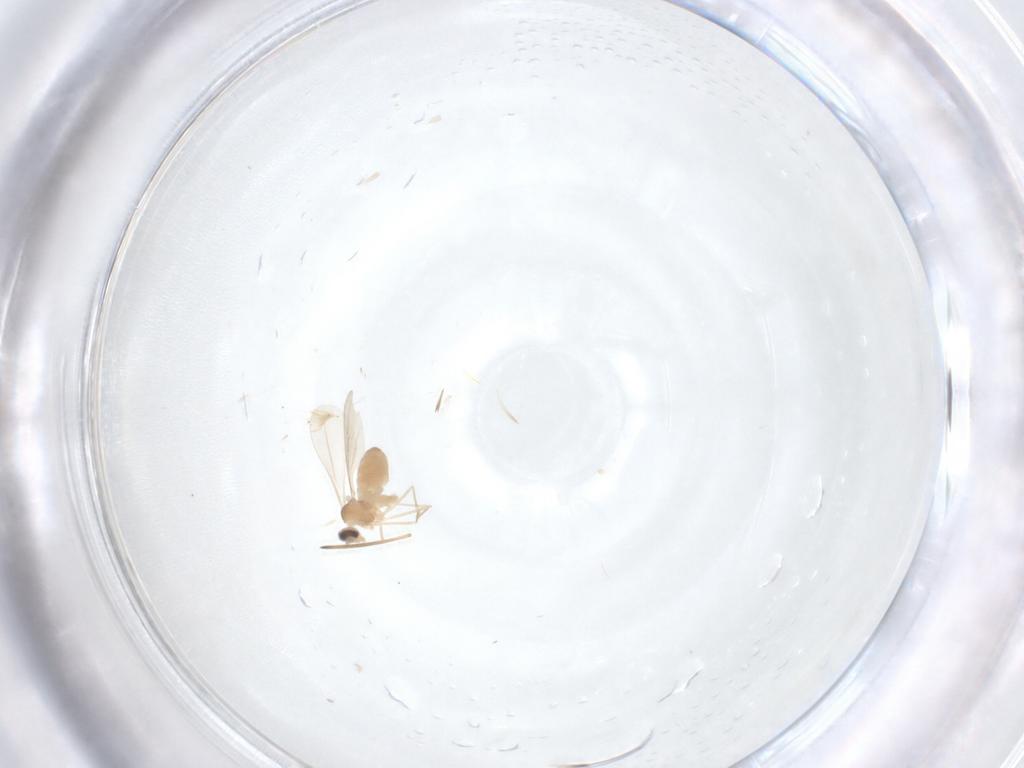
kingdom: Animalia
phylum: Arthropoda
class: Insecta
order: Diptera
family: Cecidomyiidae
